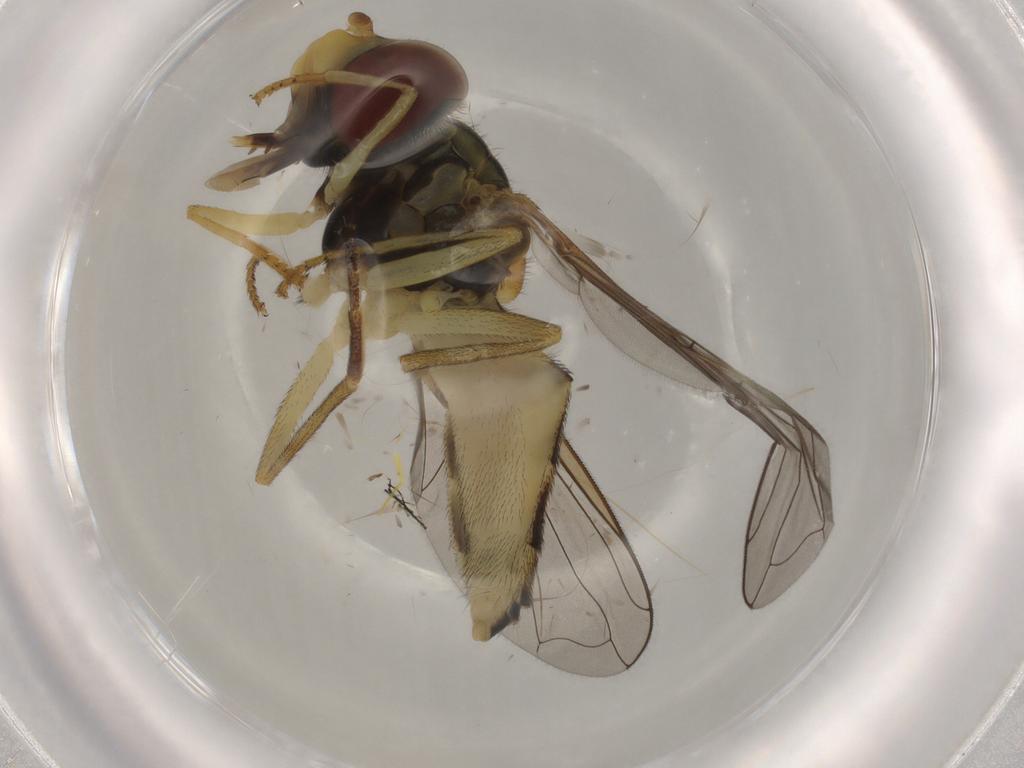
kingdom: Animalia
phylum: Arthropoda
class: Insecta
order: Diptera
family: Syrphidae
